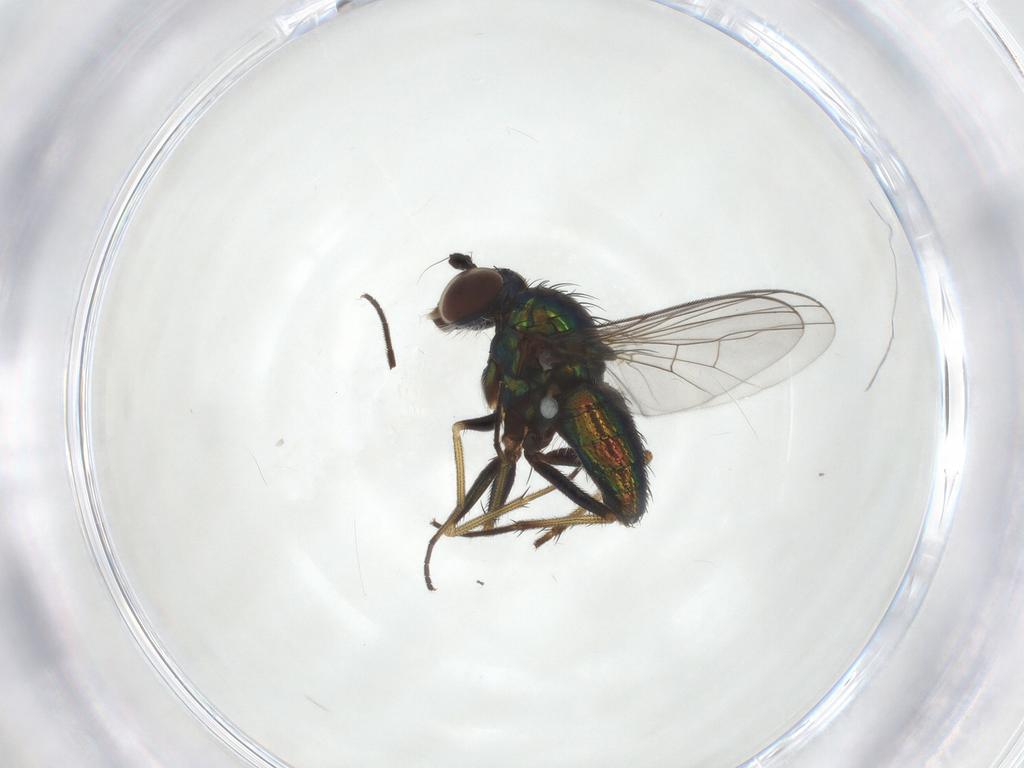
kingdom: Animalia
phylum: Arthropoda
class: Insecta
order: Diptera
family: Dolichopodidae
